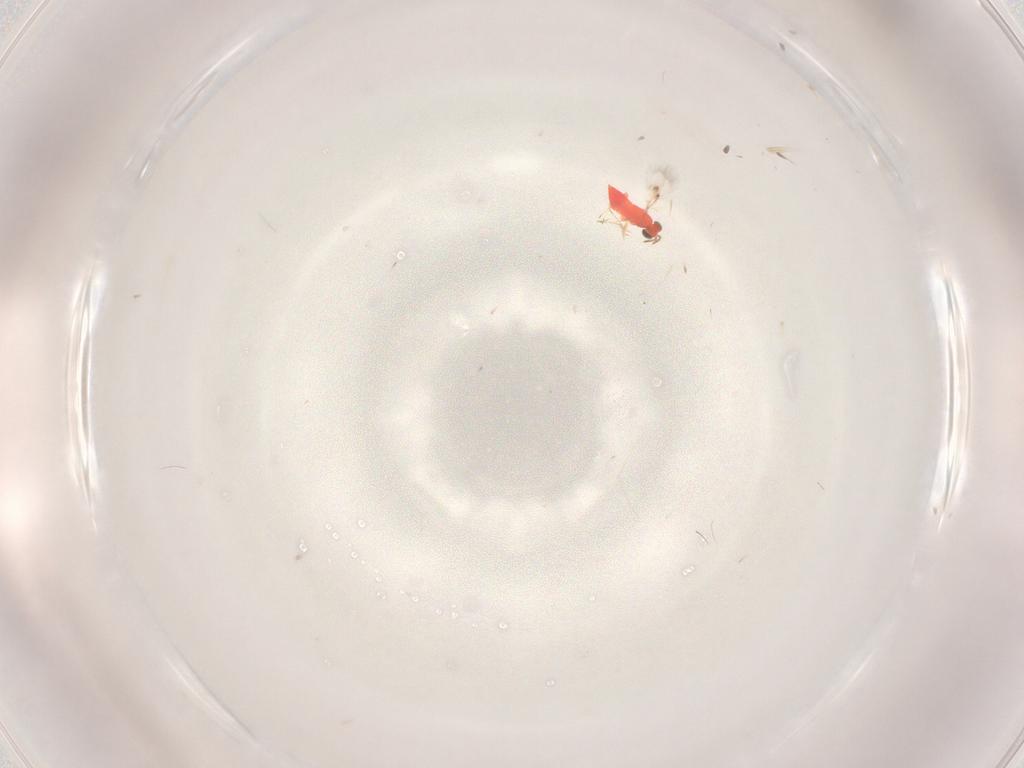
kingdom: Animalia
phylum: Arthropoda
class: Insecta
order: Hymenoptera
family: Trichogrammatidae
